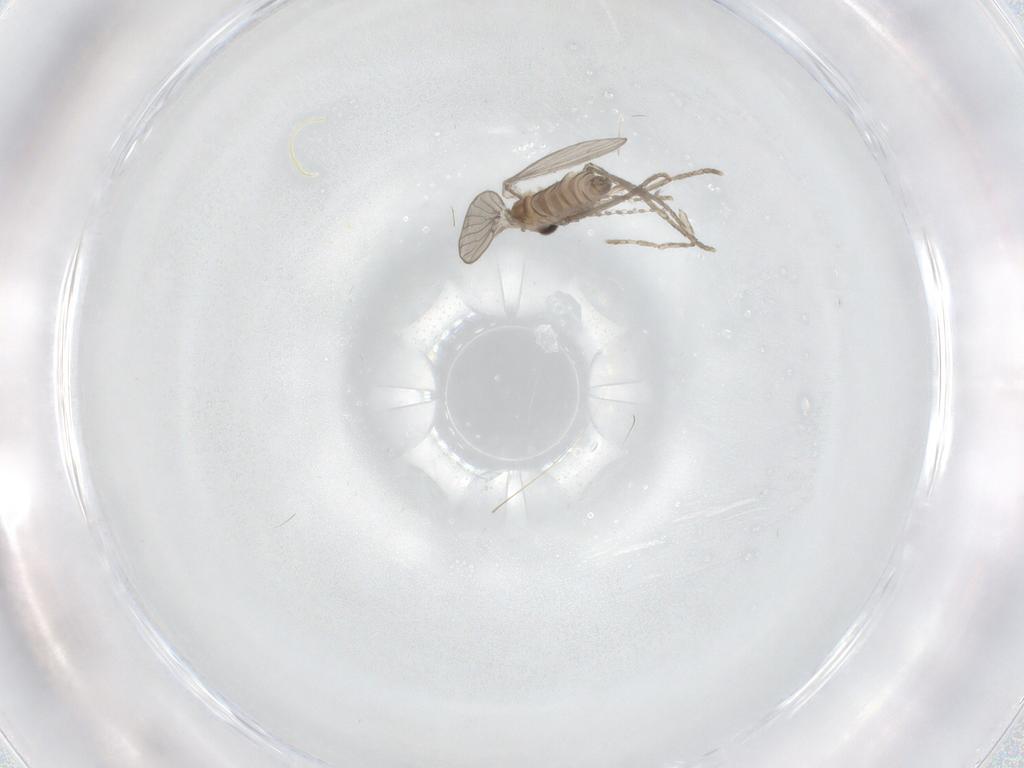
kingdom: Animalia
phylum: Arthropoda
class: Insecta
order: Diptera
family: Psychodidae
